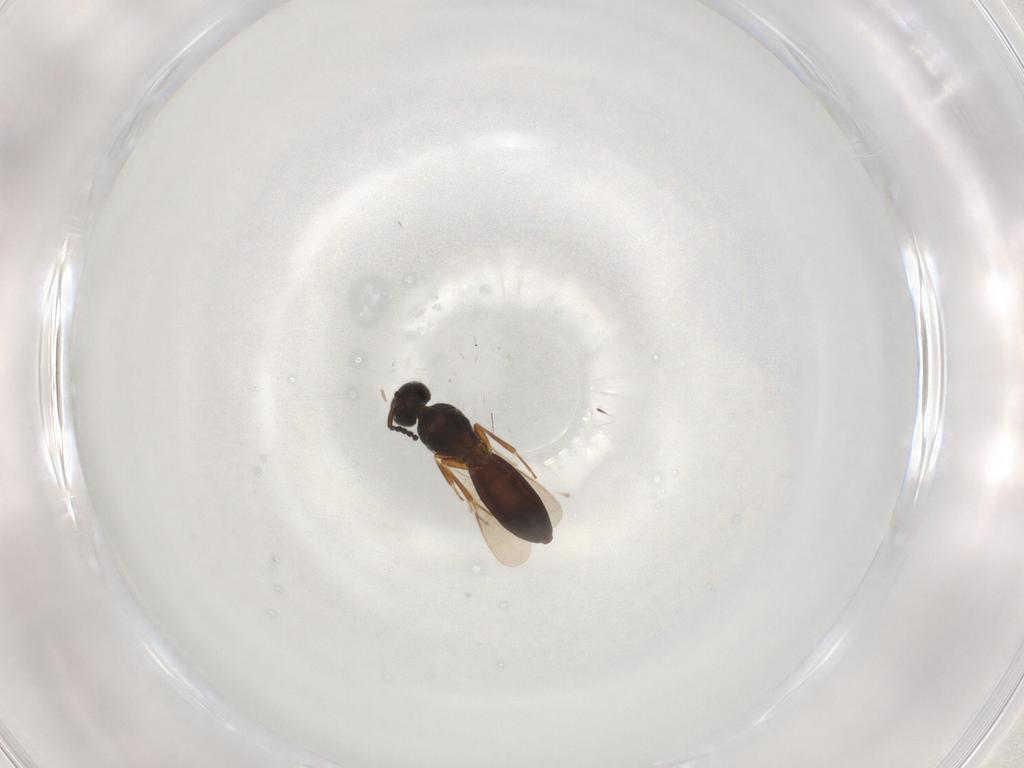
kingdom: Animalia
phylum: Arthropoda
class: Insecta
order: Hymenoptera
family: Scelionidae
